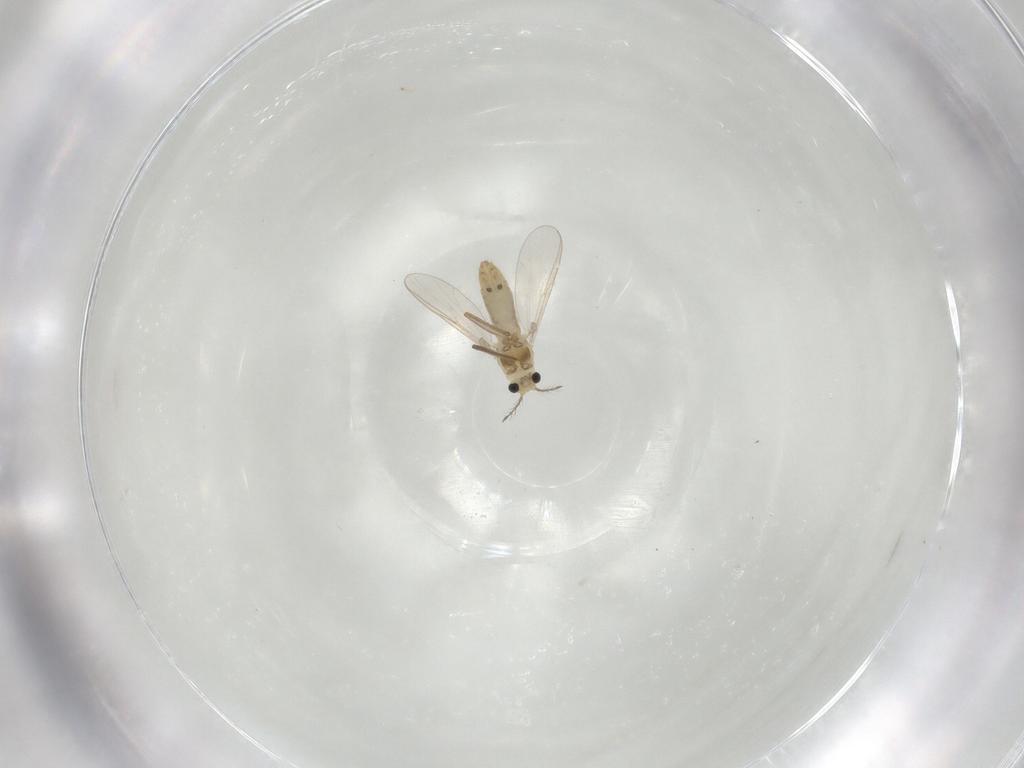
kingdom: Animalia
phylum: Arthropoda
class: Insecta
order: Diptera
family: Chironomidae
